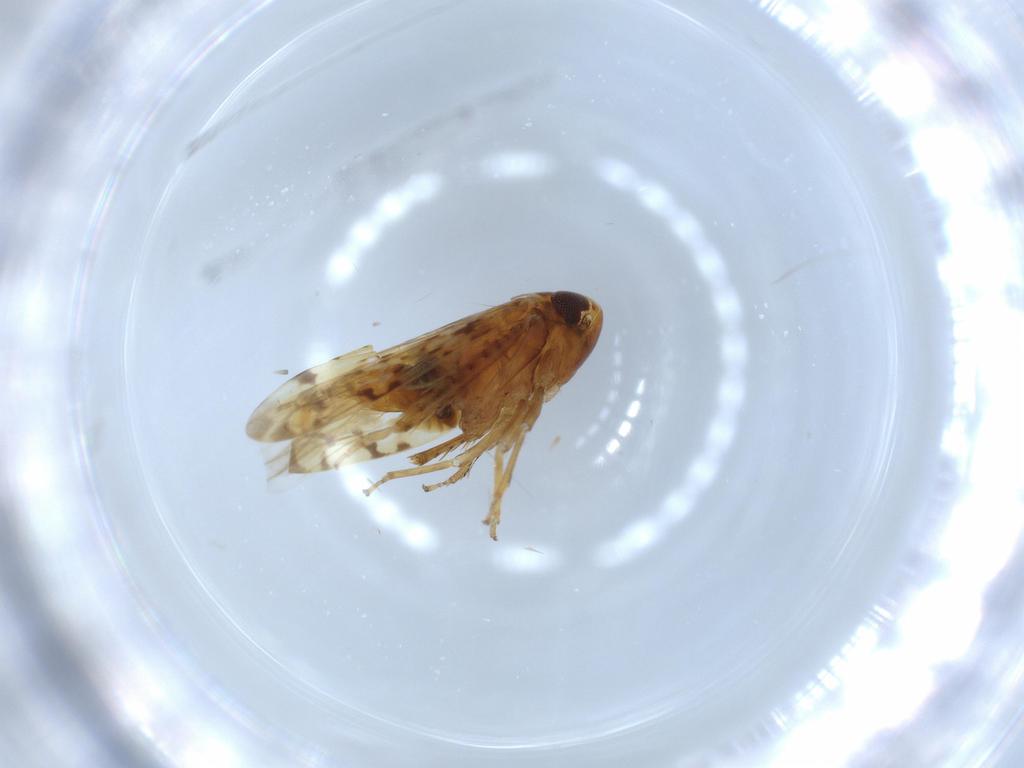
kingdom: Animalia
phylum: Arthropoda
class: Insecta
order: Hemiptera
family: Cicadellidae
